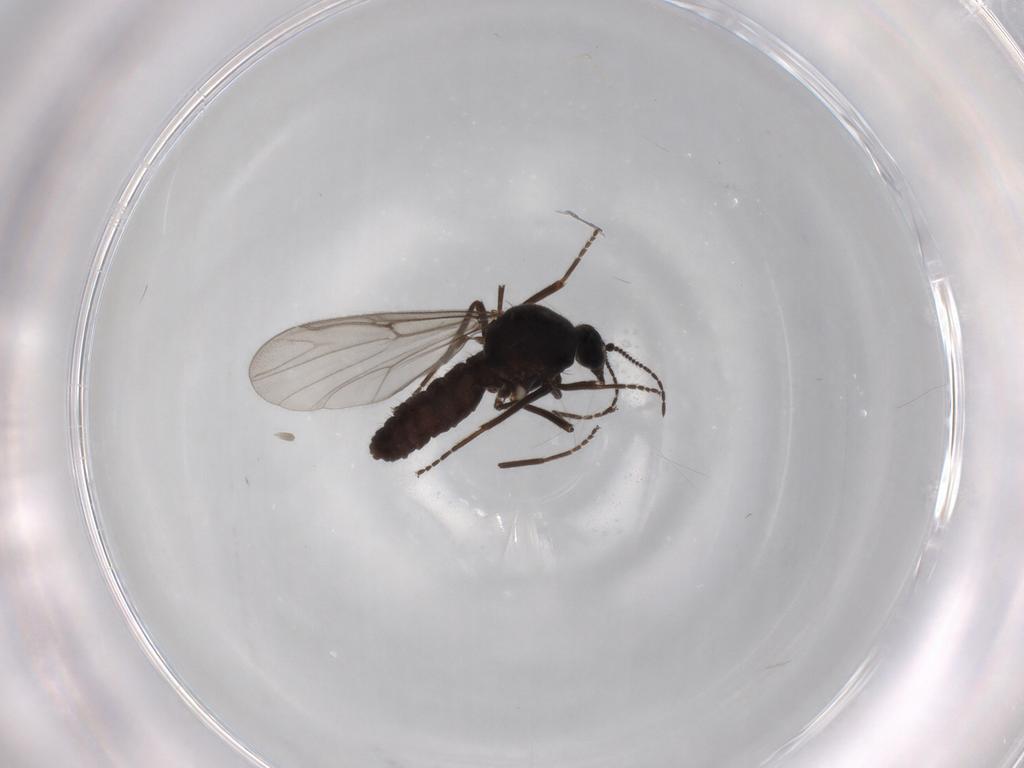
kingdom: Animalia
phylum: Arthropoda
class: Insecta
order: Diptera
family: Ceratopogonidae
